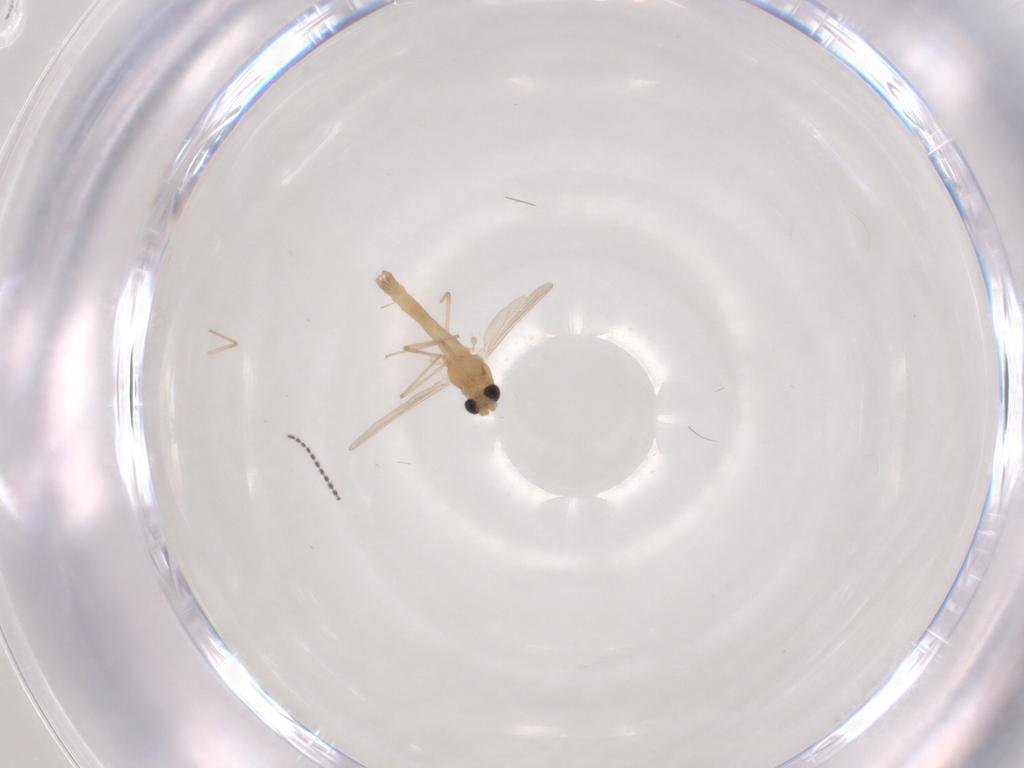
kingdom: Animalia
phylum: Arthropoda
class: Insecta
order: Diptera
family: Chironomidae
